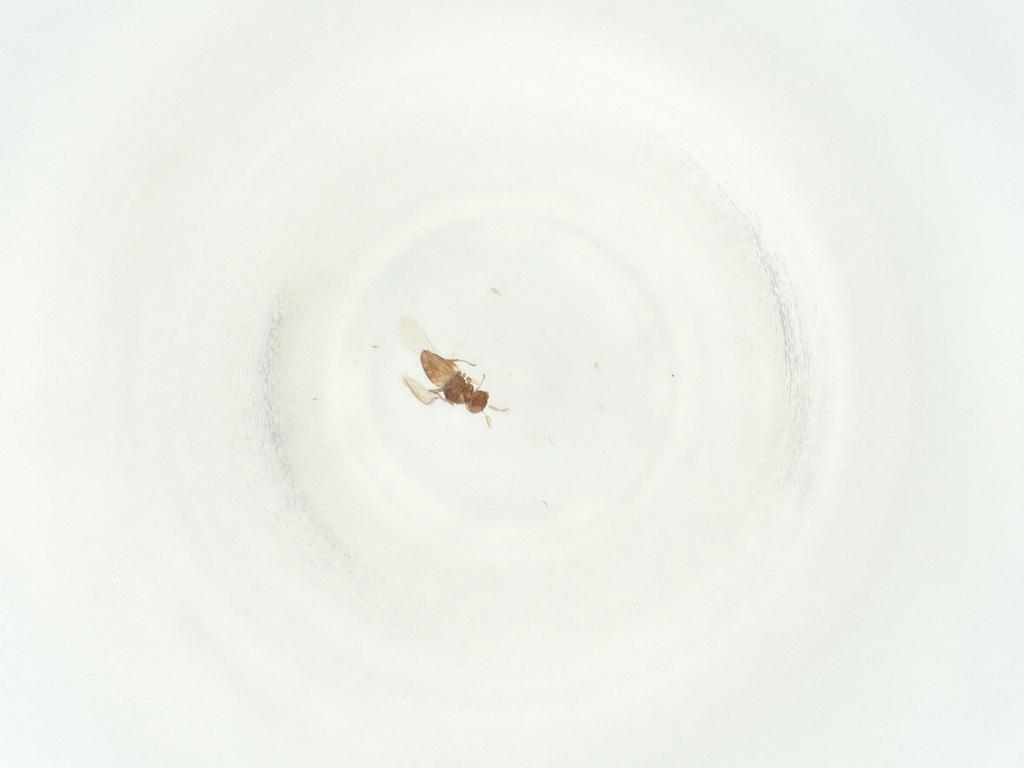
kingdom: Animalia
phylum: Arthropoda
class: Insecta
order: Hymenoptera
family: Mymaridae
